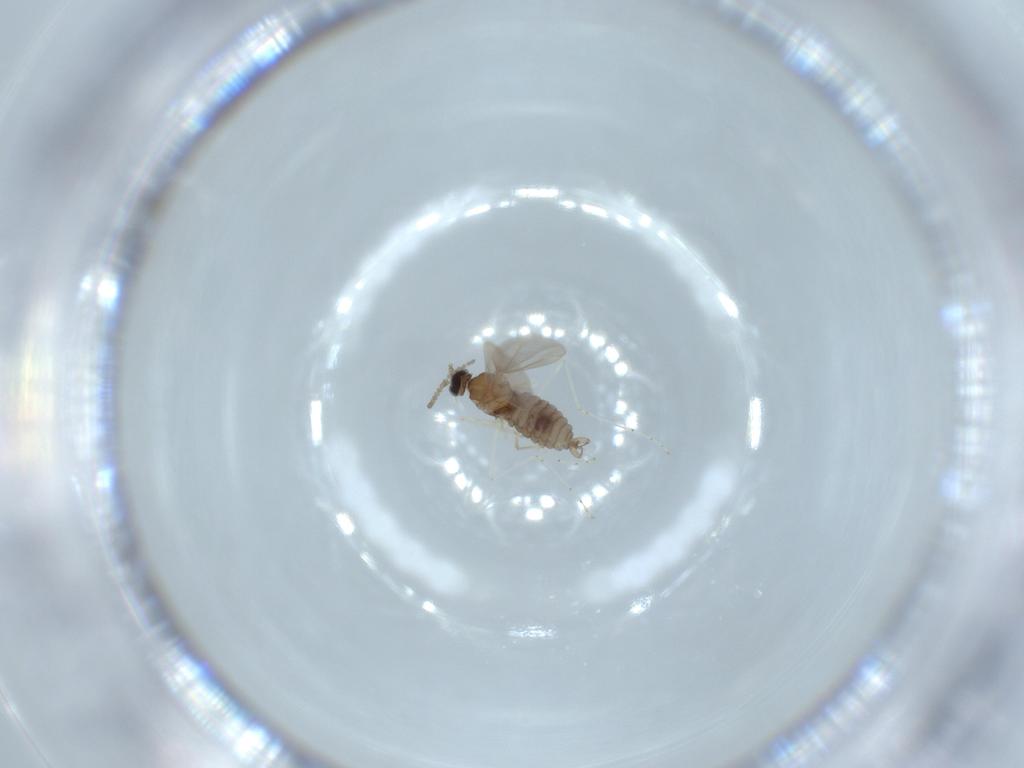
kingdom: Animalia
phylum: Arthropoda
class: Insecta
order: Diptera
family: Cecidomyiidae
